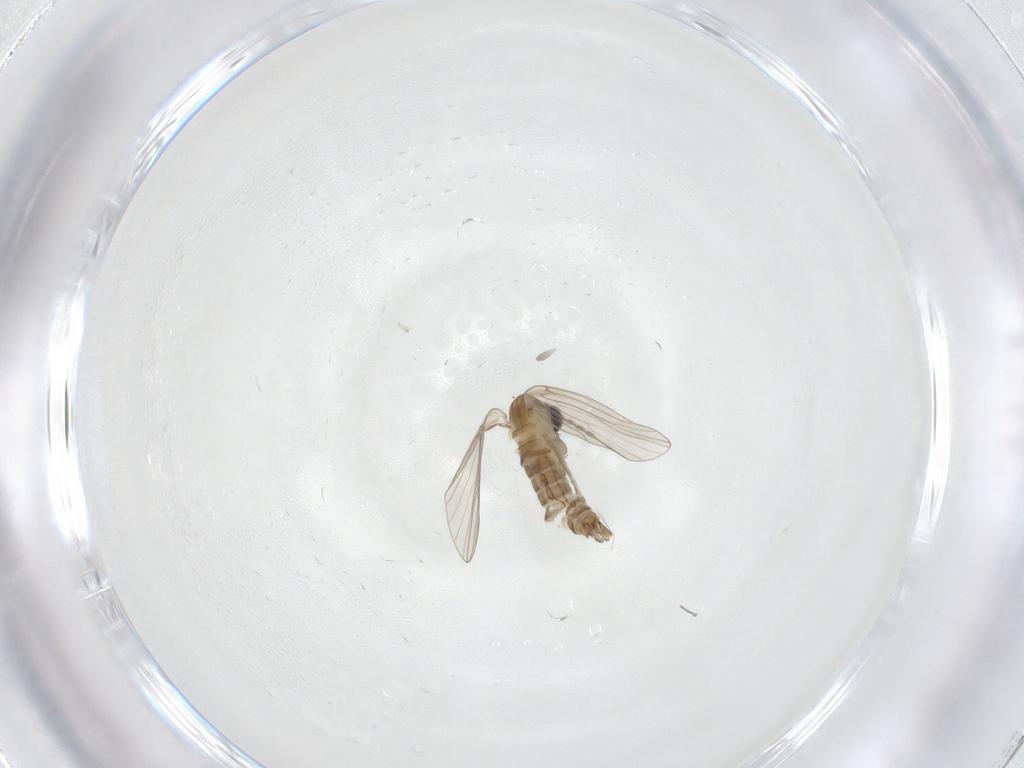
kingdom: Animalia
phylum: Arthropoda
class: Insecta
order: Diptera
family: Psychodidae
